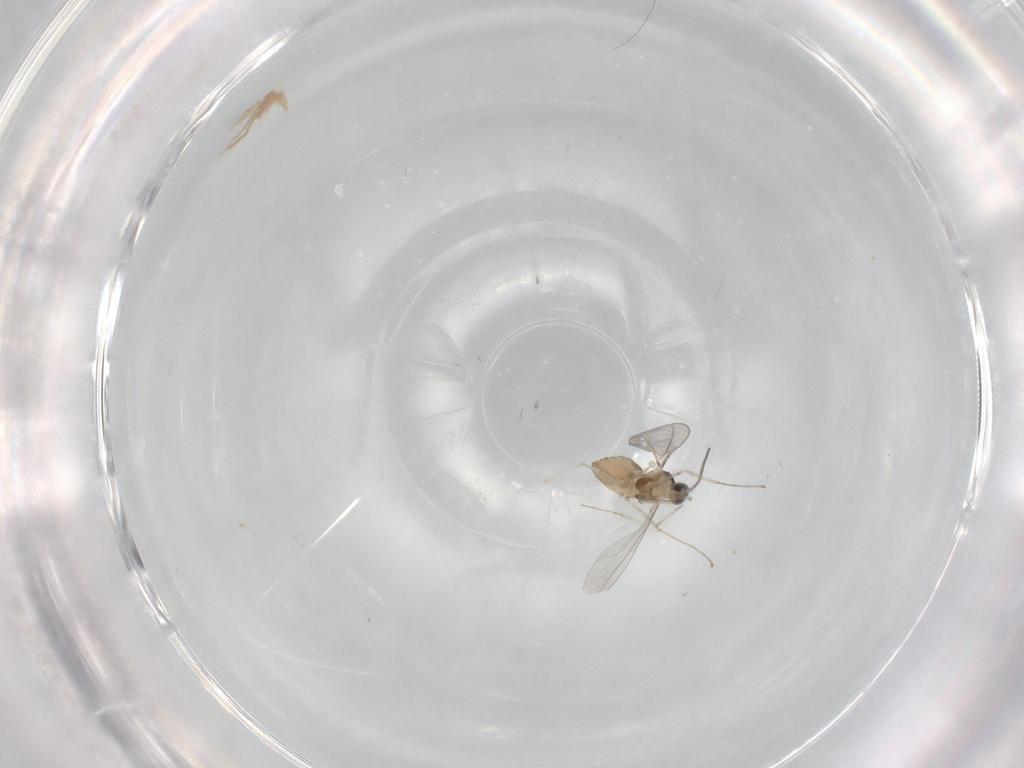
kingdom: Animalia
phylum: Arthropoda
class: Insecta
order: Diptera
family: Cecidomyiidae
